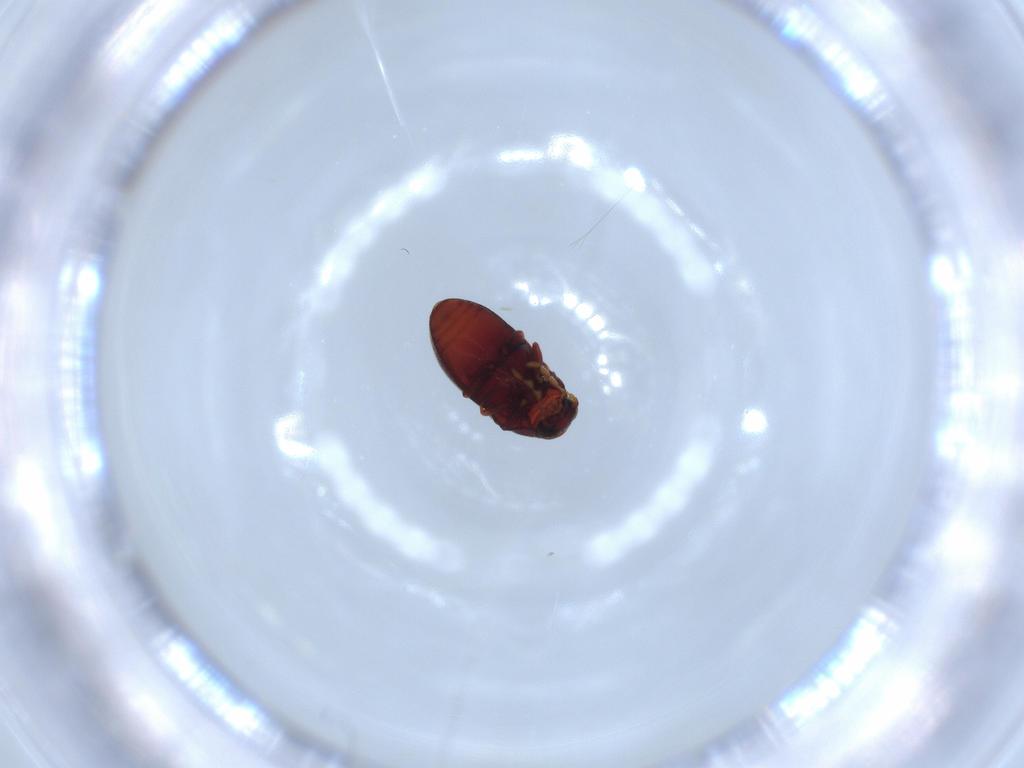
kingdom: Animalia
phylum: Arthropoda
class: Insecta
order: Coleoptera
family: Ptinidae
